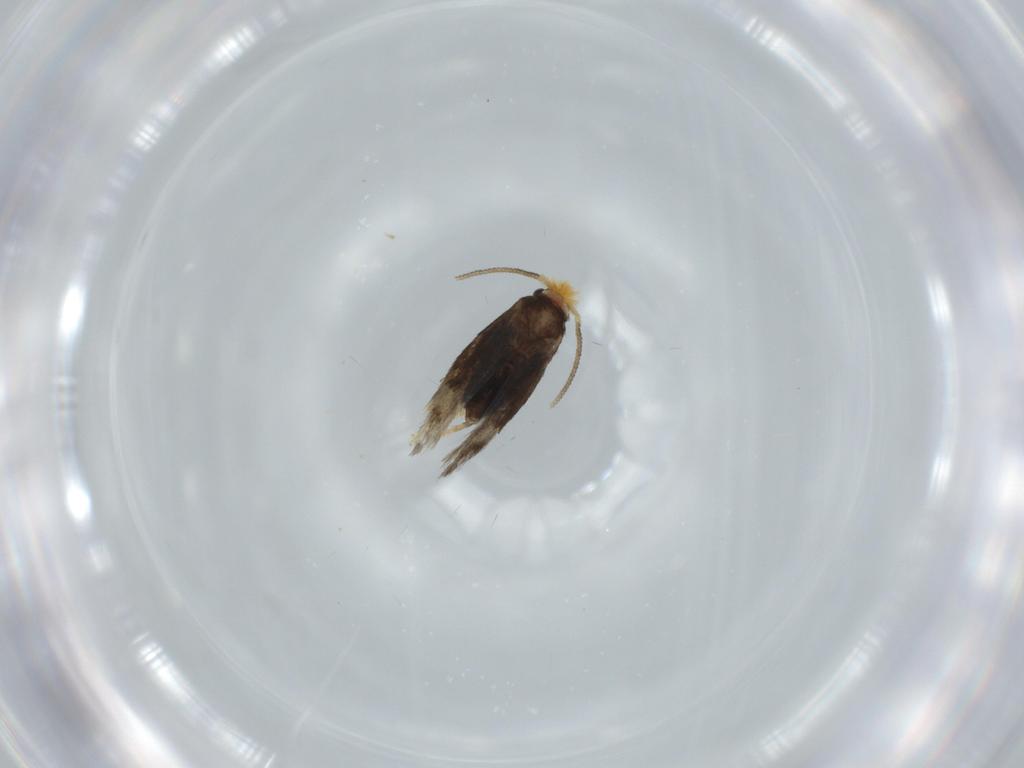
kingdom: Animalia
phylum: Arthropoda
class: Insecta
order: Lepidoptera
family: Nepticulidae
